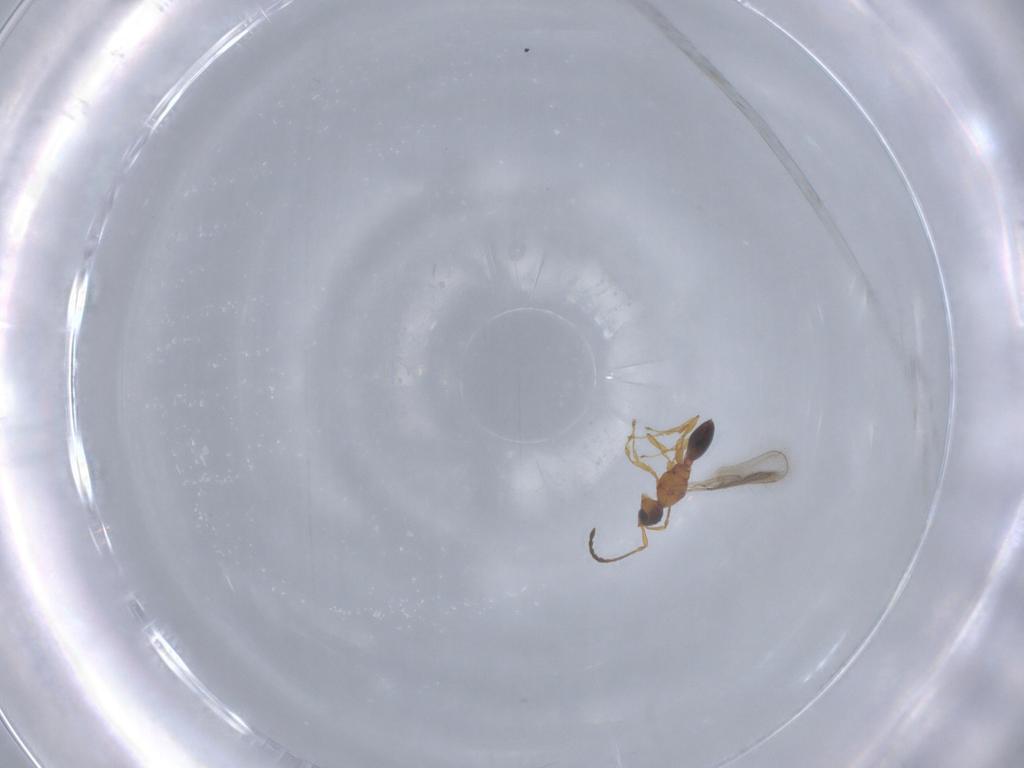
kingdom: Animalia
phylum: Arthropoda
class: Insecta
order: Hymenoptera
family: Diapriidae
